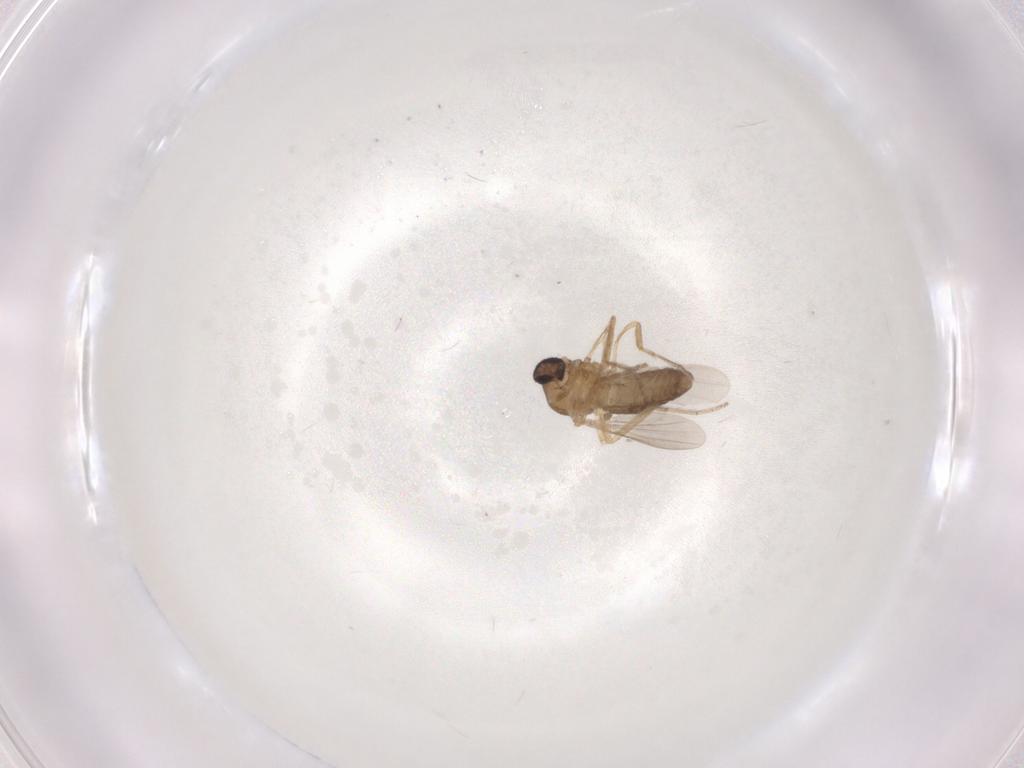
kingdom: Animalia
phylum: Arthropoda
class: Insecta
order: Diptera
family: Ceratopogonidae
